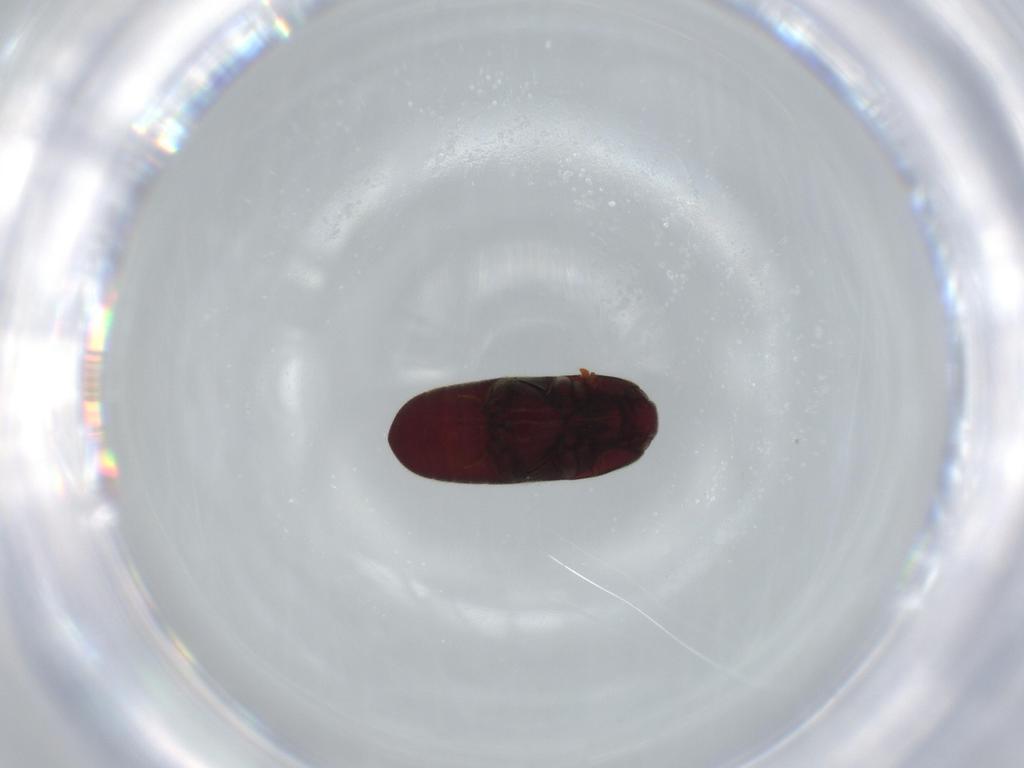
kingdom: Animalia
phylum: Arthropoda
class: Insecta
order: Coleoptera
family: Throscidae
